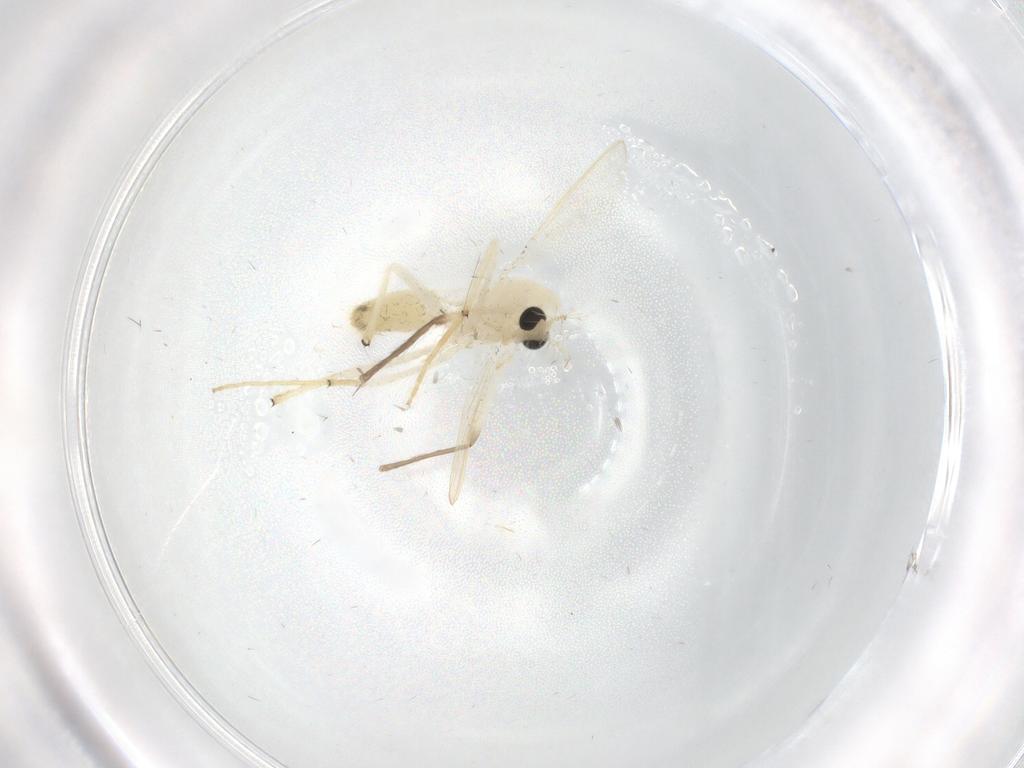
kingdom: Animalia
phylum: Arthropoda
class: Insecta
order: Diptera
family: Chironomidae
